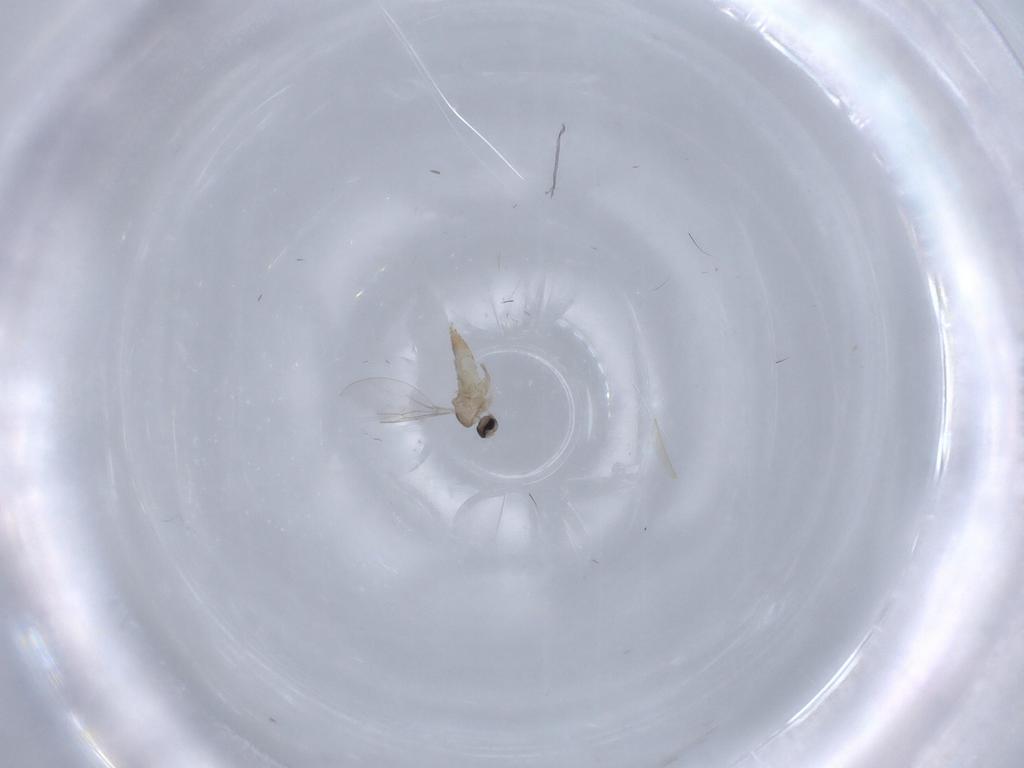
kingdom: Animalia
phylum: Arthropoda
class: Insecta
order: Diptera
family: Cecidomyiidae
